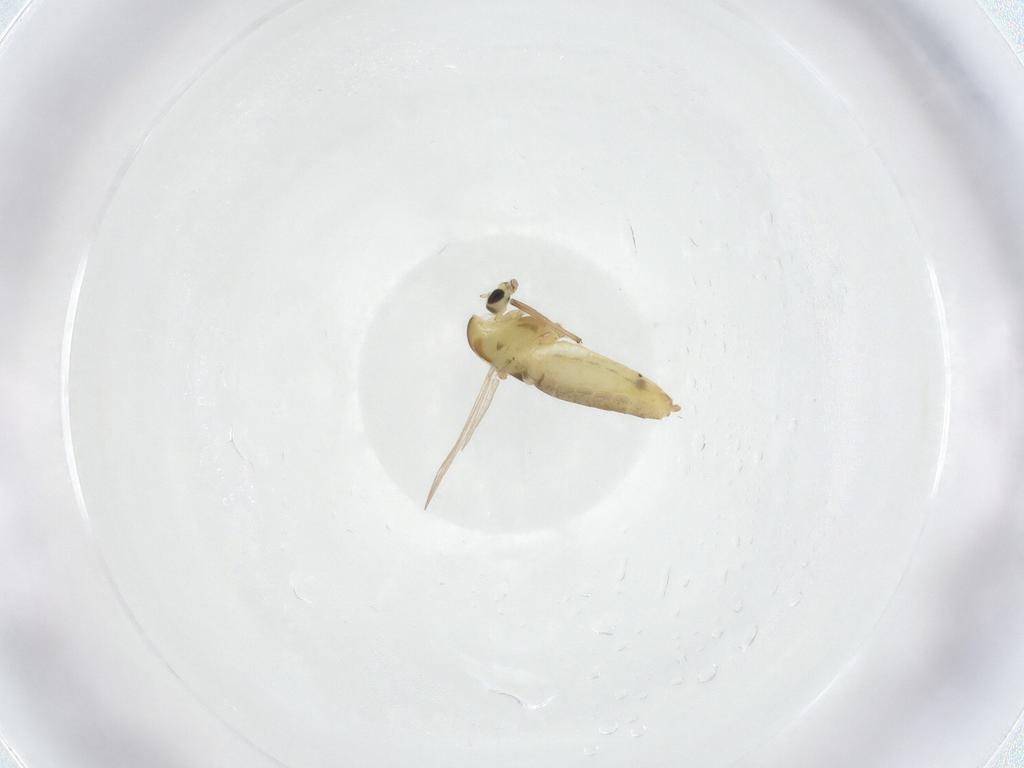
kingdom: Animalia
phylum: Arthropoda
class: Insecta
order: Diptera
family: Chironomidae
